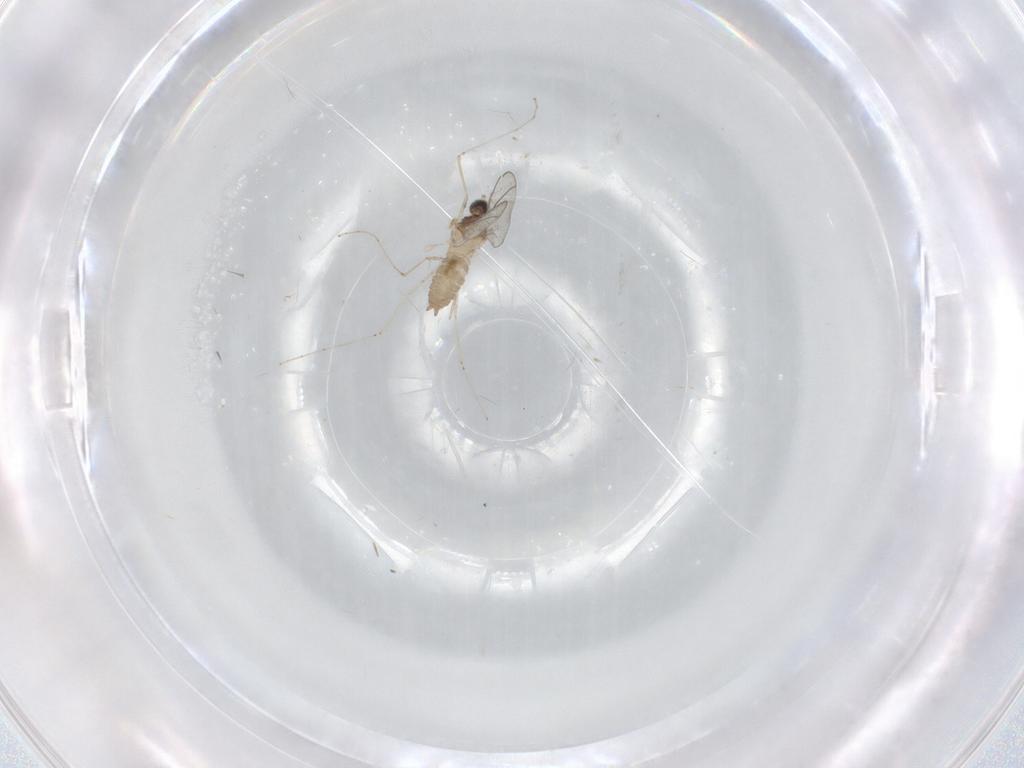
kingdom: Animalia
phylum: Arthropoda
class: Insecta
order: Diptera
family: Cecidomyiidae
